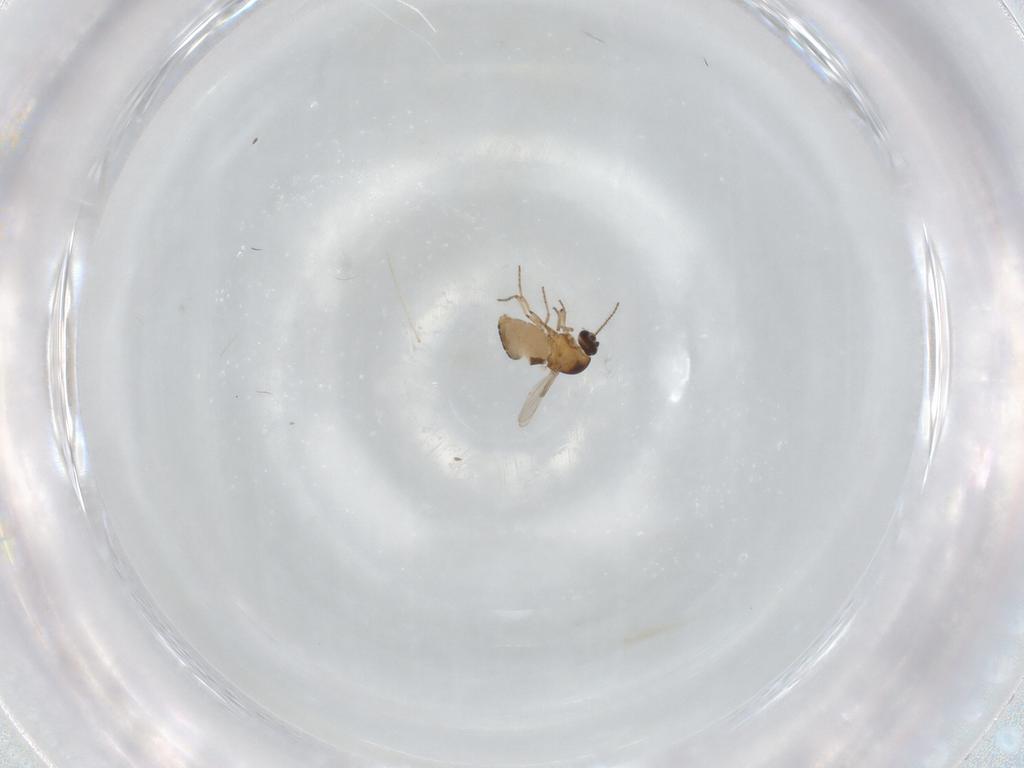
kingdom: Animalia
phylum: Arthropoda
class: Insecta
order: Diptera
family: Ceratopogonidae
